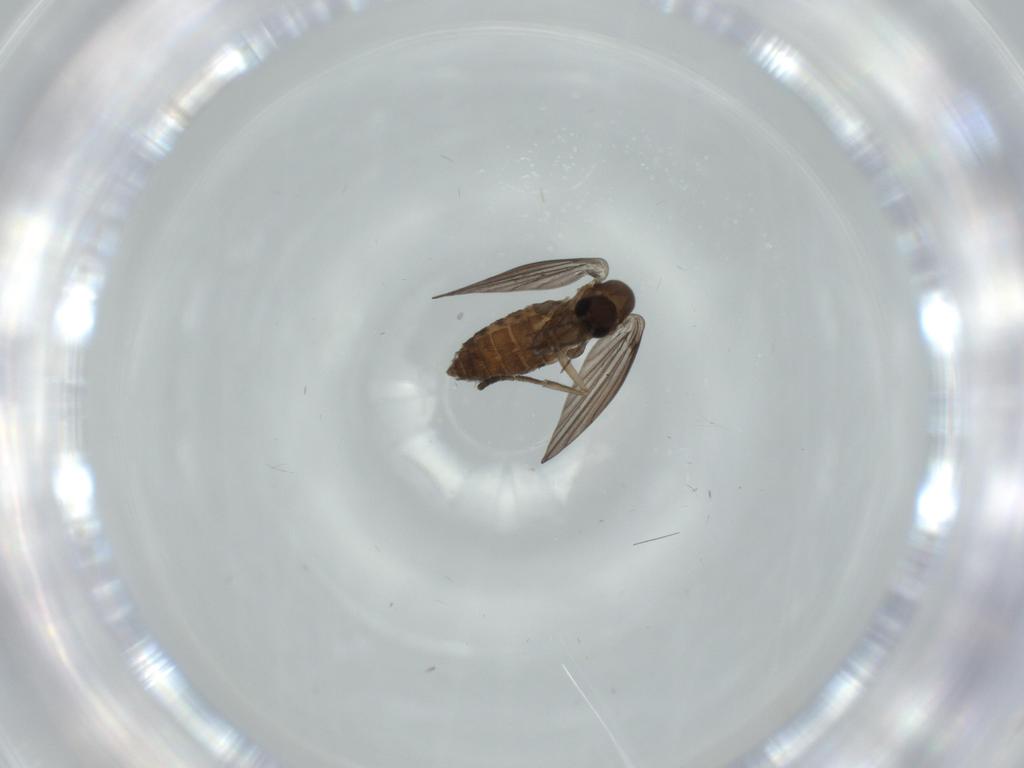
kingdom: Animalia
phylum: Arthropoda
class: Insecta
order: Diptera
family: Psychodidae
